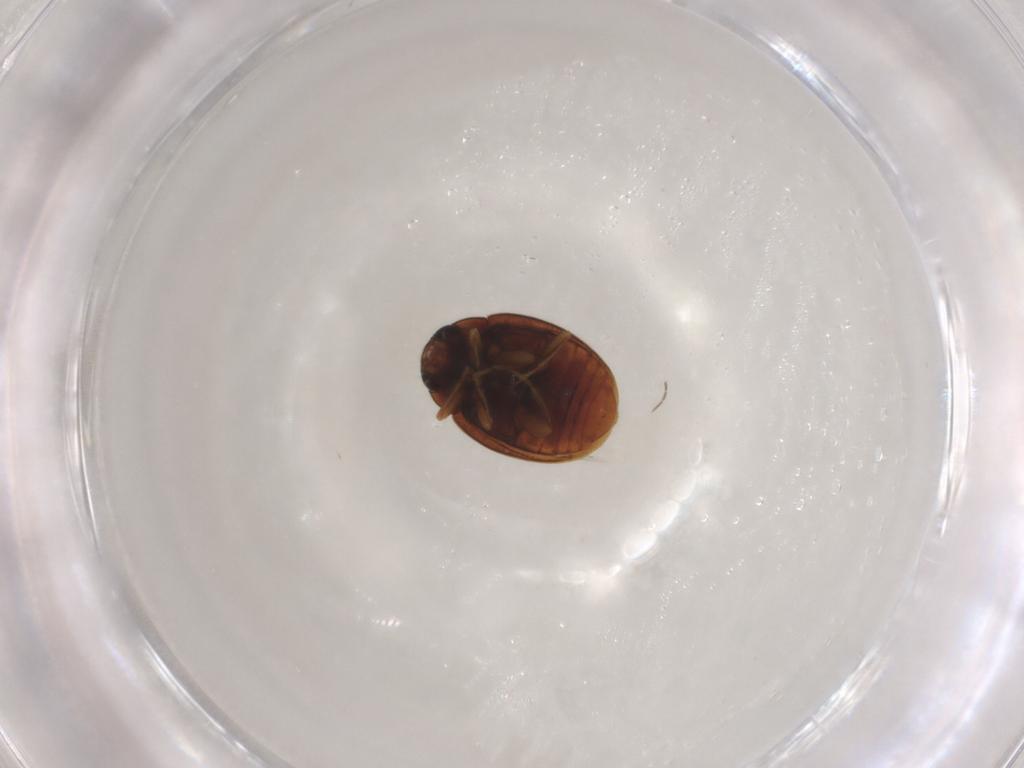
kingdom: Animalia
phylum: Arthropoda
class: Insecta
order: Coleoptera
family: Coccinellidae
